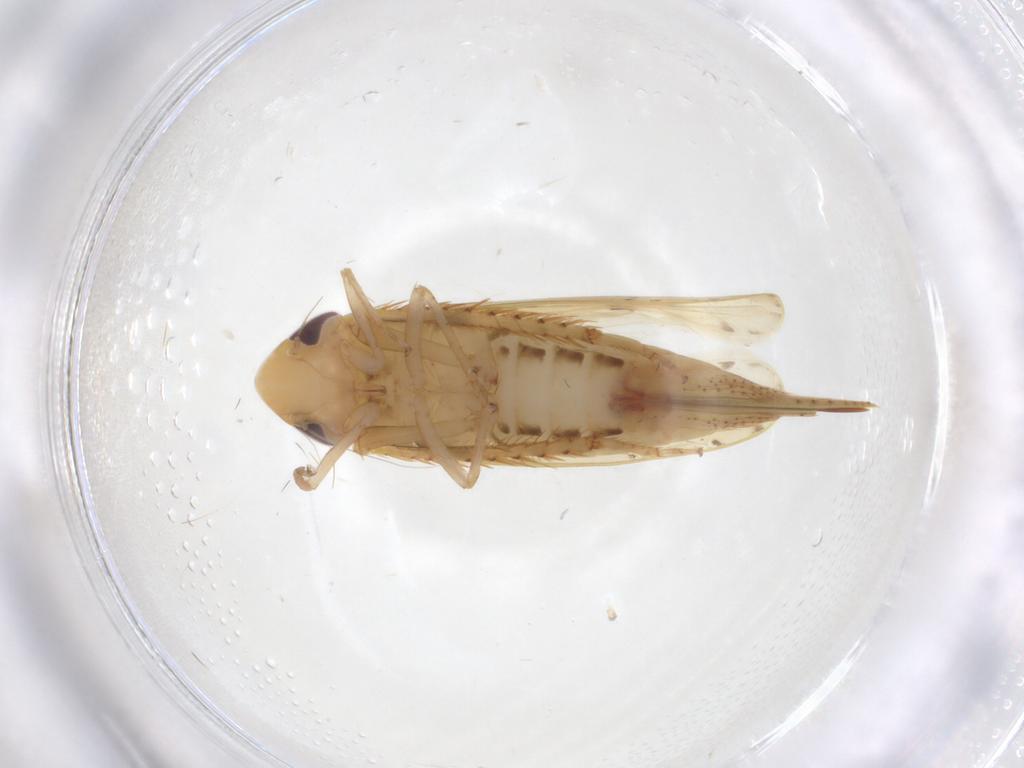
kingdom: Animalia
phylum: Arthropoda
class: Insecta
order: Hemiptera
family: Cicadellidae
